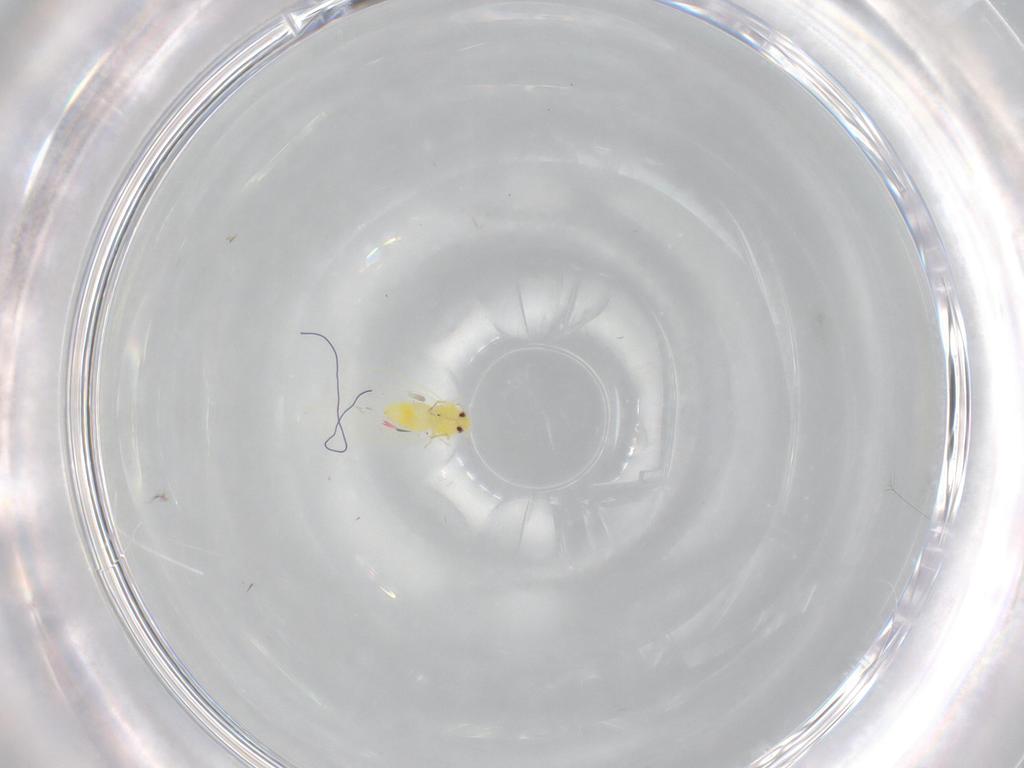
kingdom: Animalia
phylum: Arthropoda
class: Insecta
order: Hemiptera
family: Aleyrodidae
